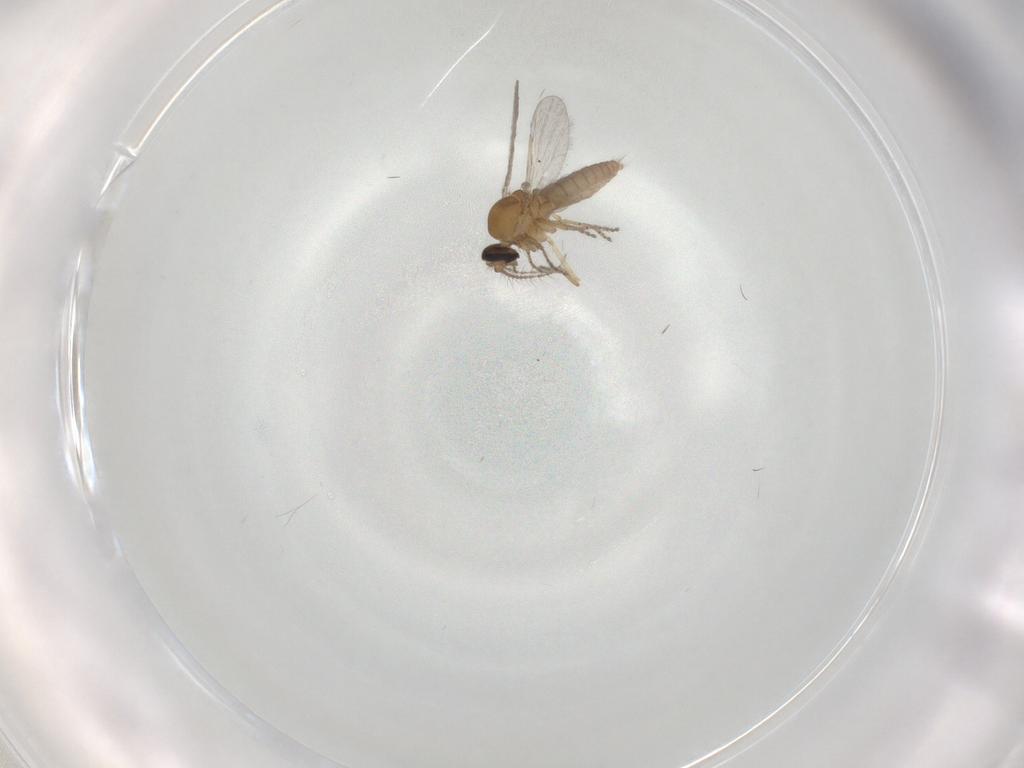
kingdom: Animalia
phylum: Arthropoda
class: Insecta
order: Diptera
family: Ceratopogonidae
